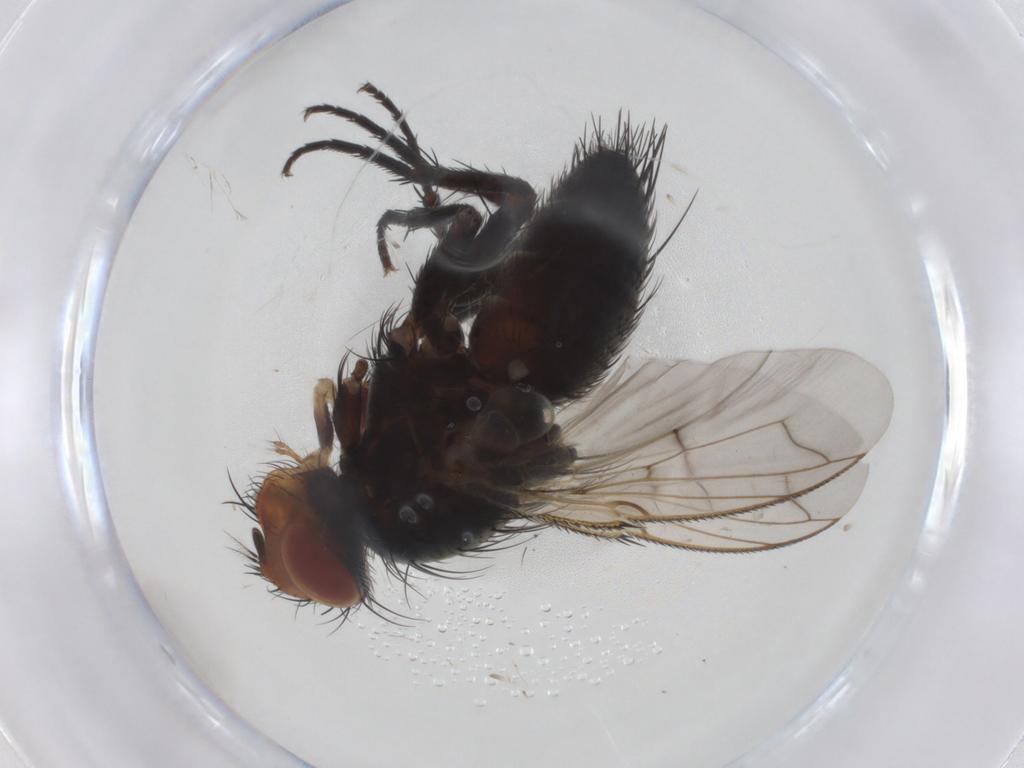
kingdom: Animalia
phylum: Arthropoda
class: Insecta
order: Diptera
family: Tachinidae
